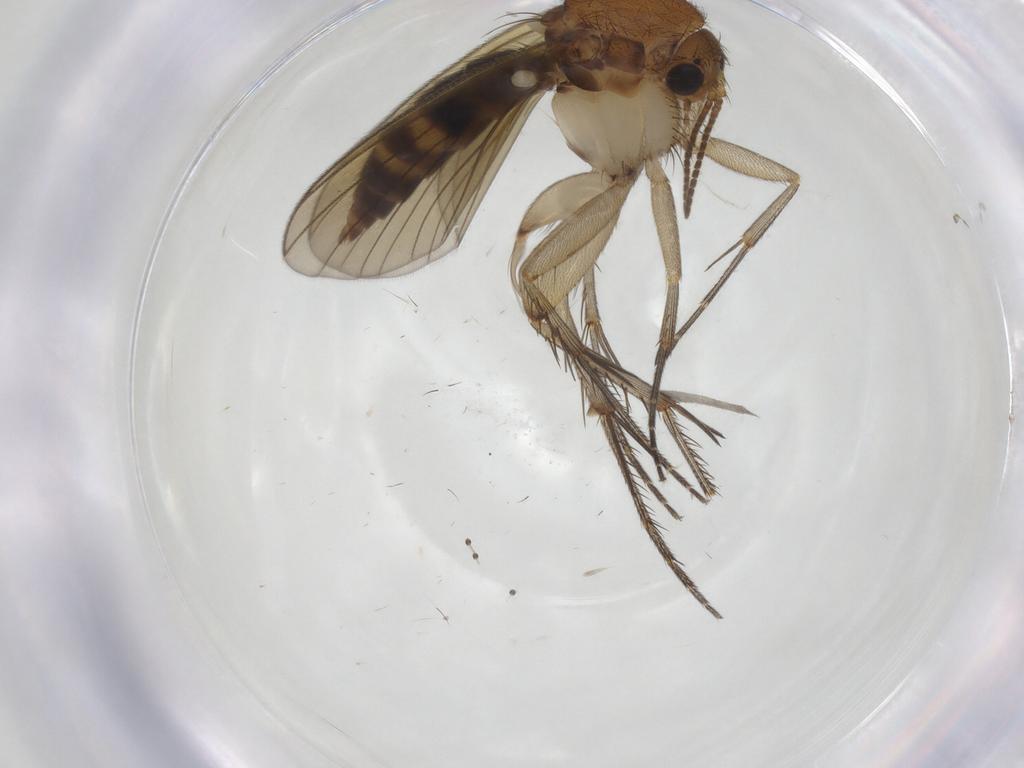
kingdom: Animalia
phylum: Arthropoda
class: Insecta
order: Diptera
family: Mycetophilidae
